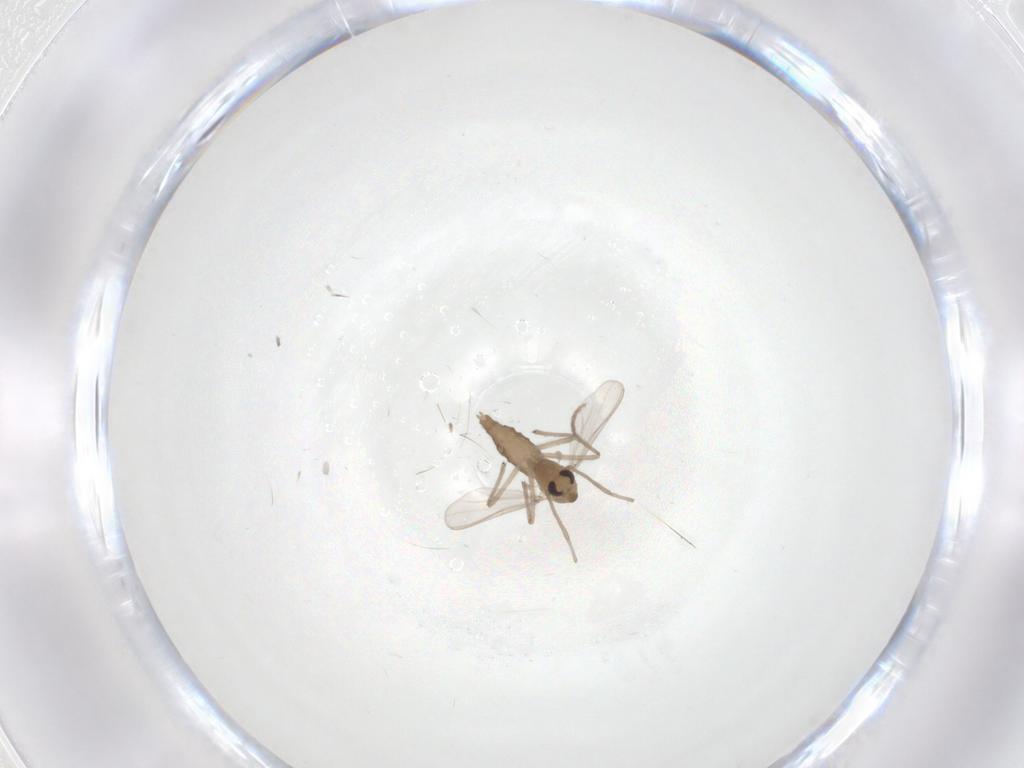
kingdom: Animalia
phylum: Arthropoda
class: Insecta
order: Diptera
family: Chironomidae
